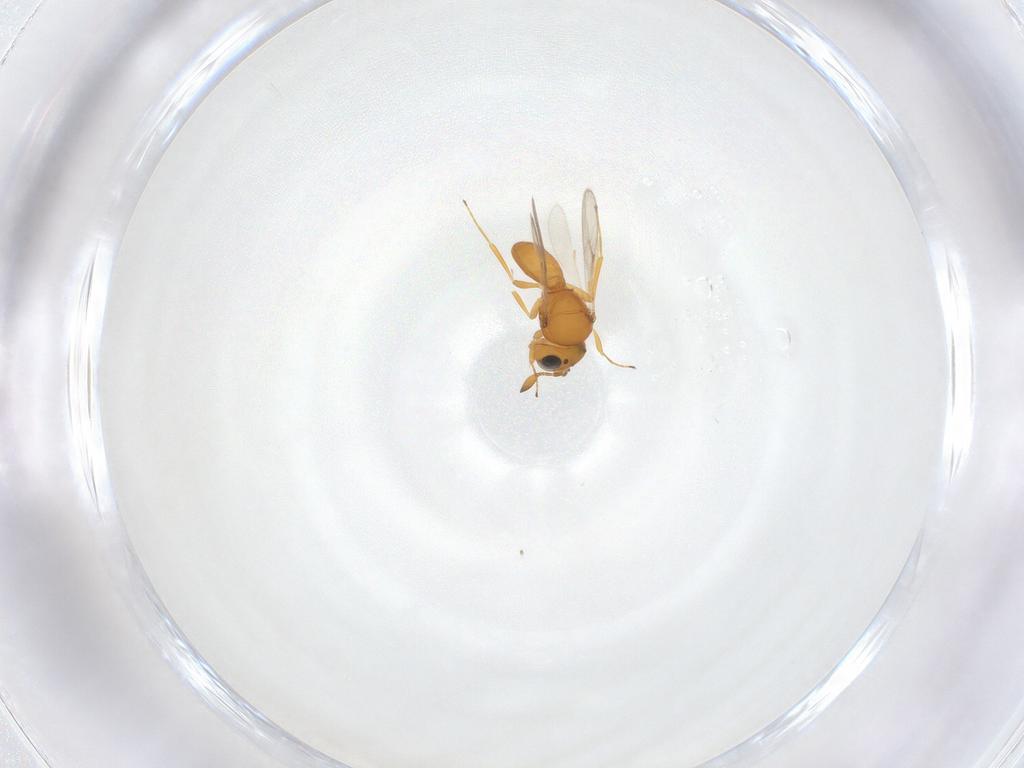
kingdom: Animalia
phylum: Arthropoda
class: Insecta
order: Hymenoptera
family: Scelionidae
